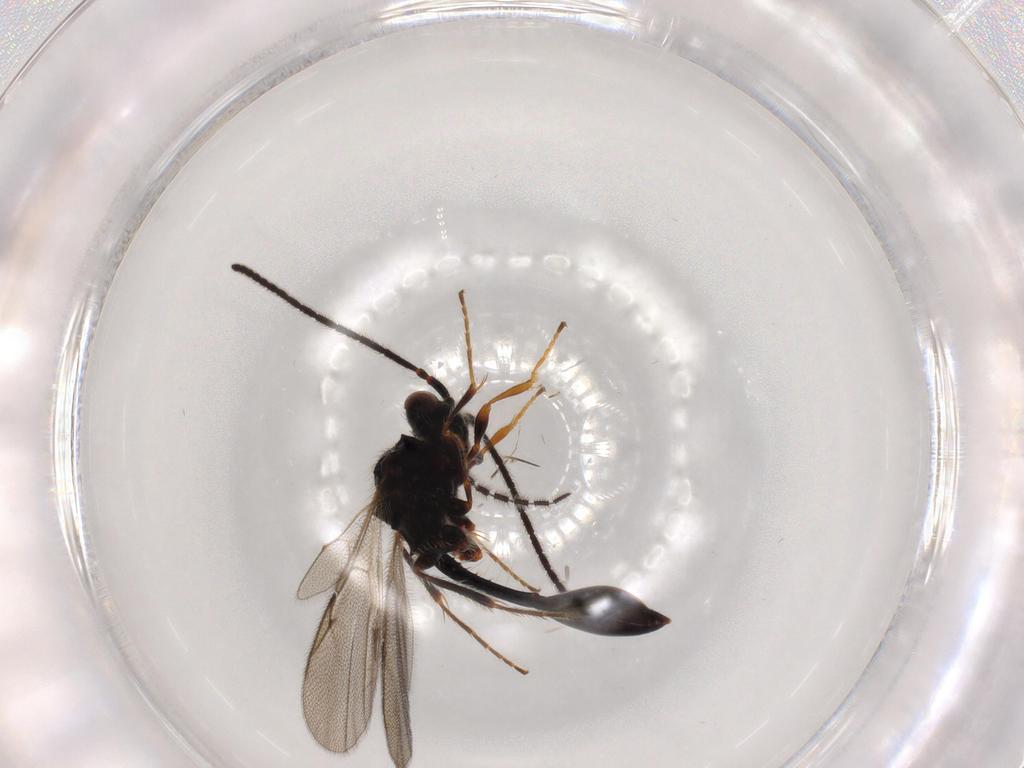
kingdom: Animalia
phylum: Arthropoda
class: Insecta
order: Hymenoptera
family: Diapriidae
